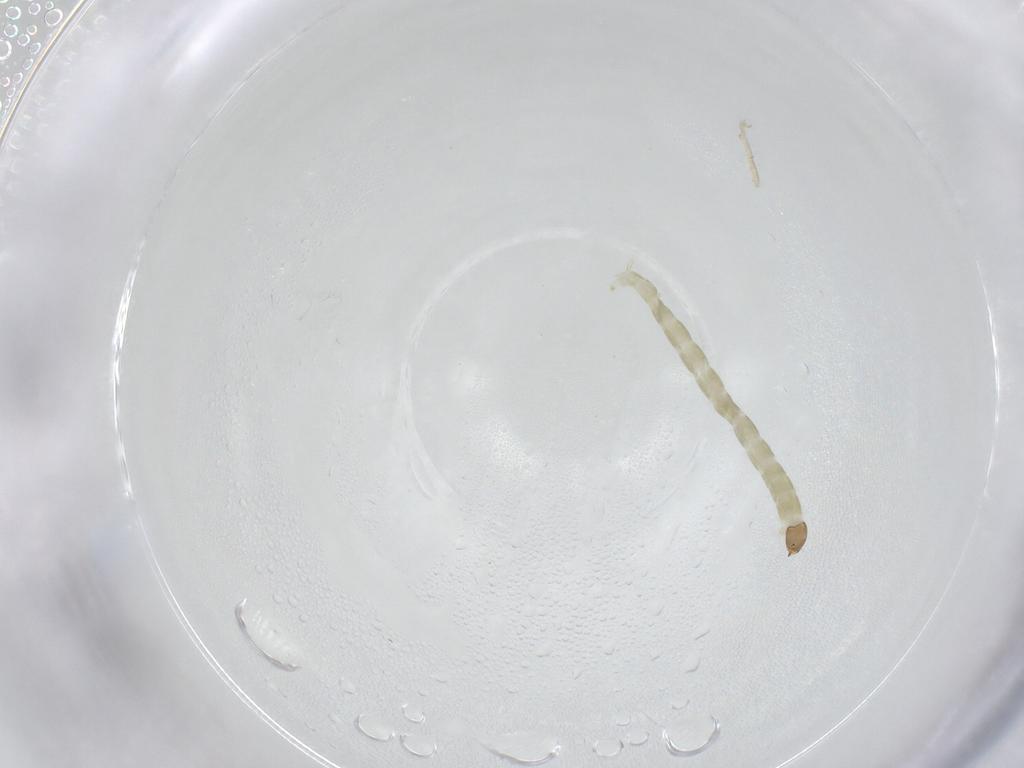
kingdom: Animalia
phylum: Arthropoda
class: Insecta
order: Diptera
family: Chironomidae
